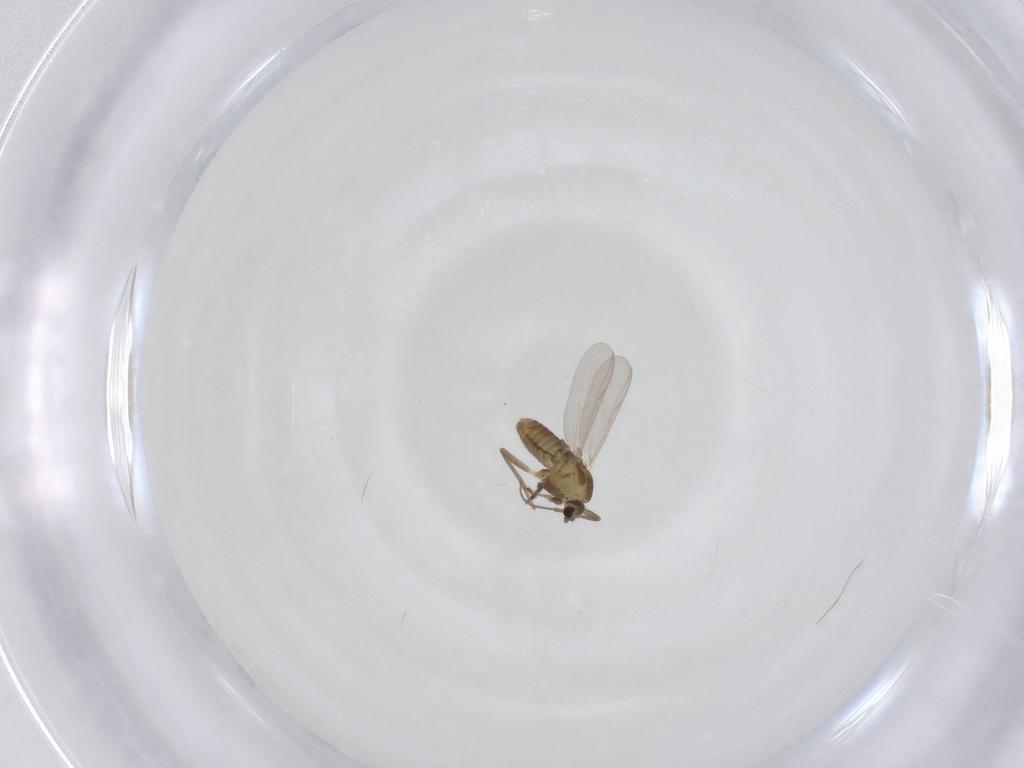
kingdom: Animalia
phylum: Arthropoda
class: Insecta
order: Diptera
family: Chironomidae
